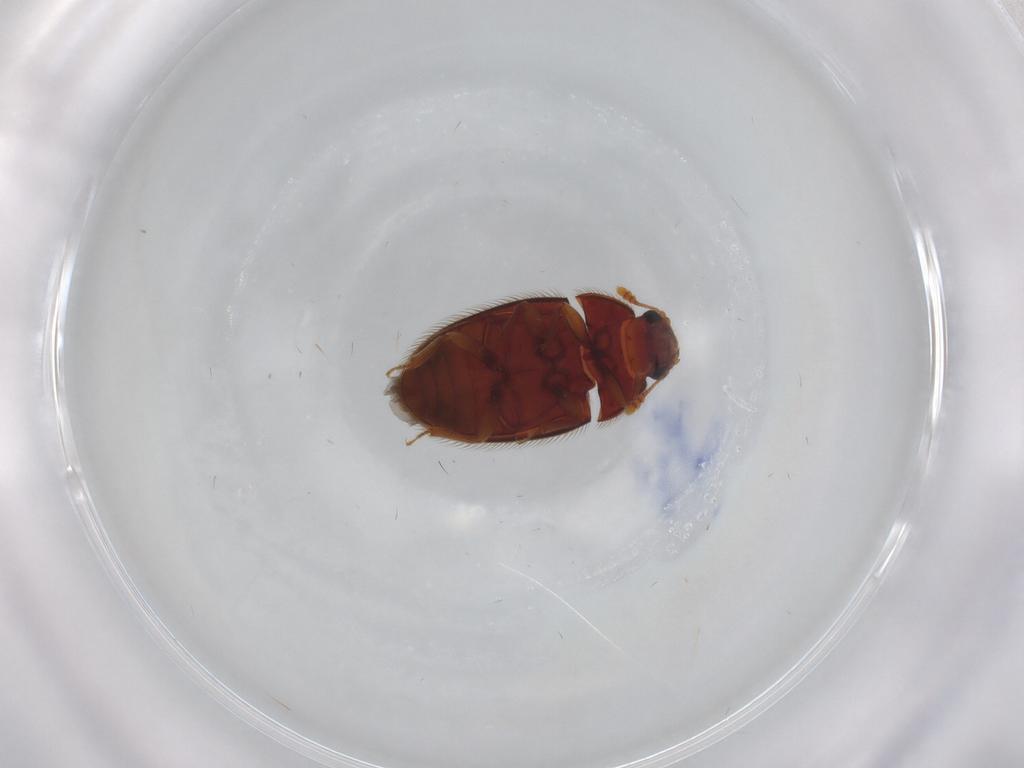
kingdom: Animalia
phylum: Arthropoda
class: Insecta
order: Coleoptera
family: Biphyllidae
